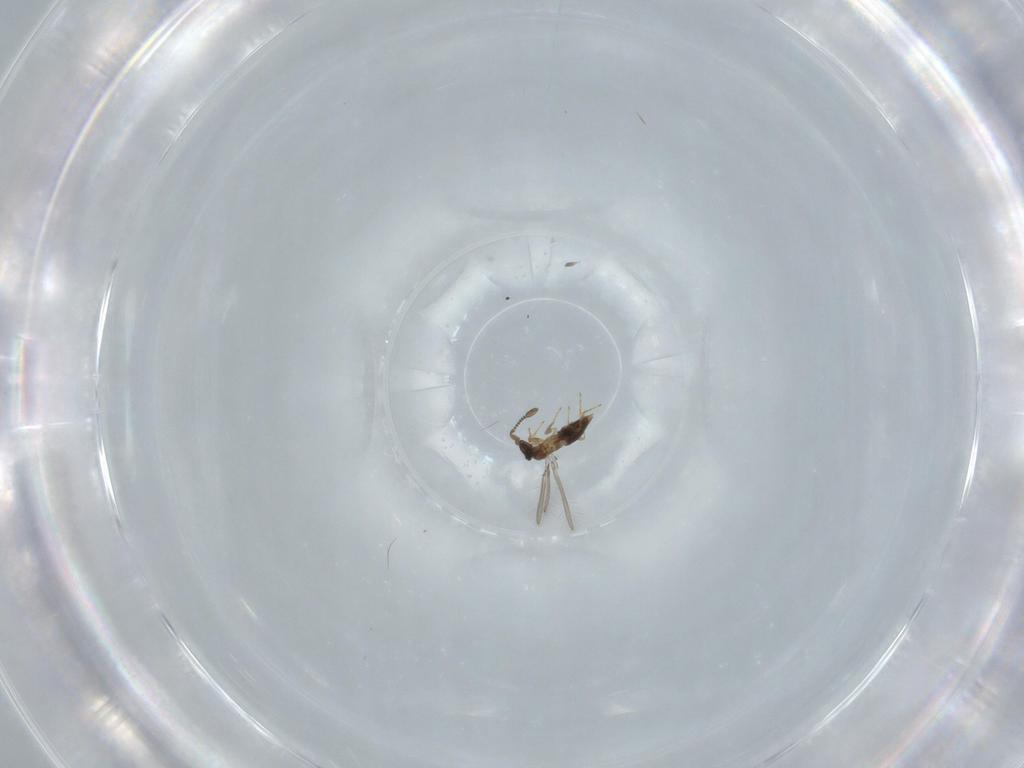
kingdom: Animalia
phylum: Arthropoda
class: Insecta
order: Hymenoptera
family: Mymaridae
